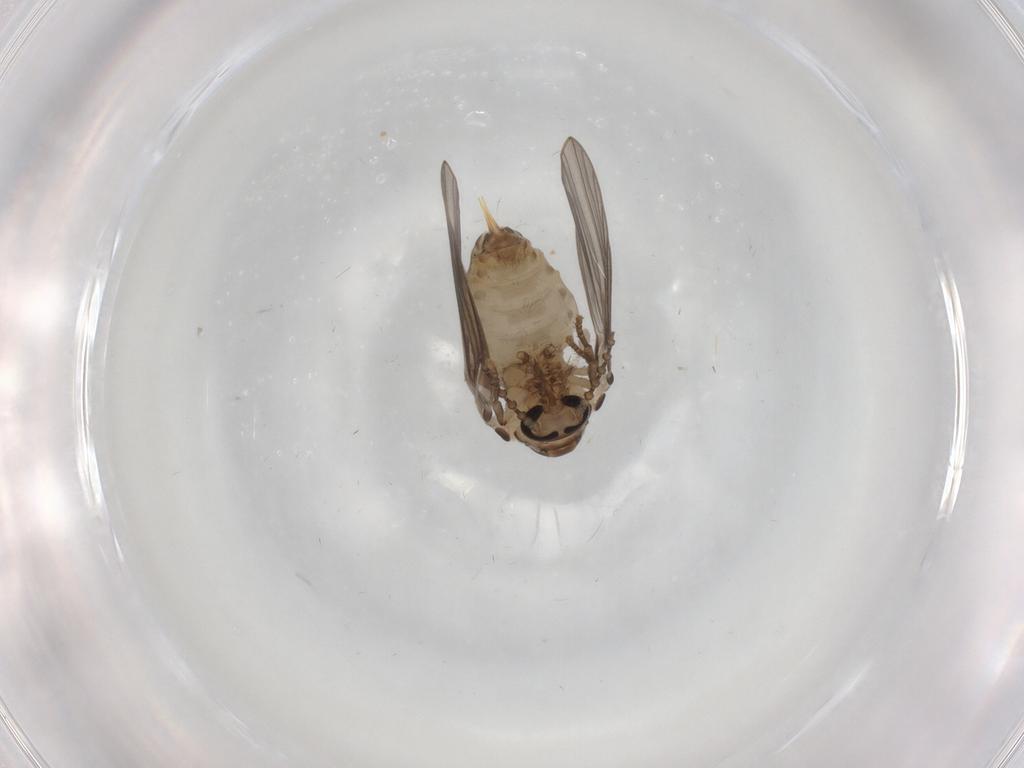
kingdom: Animalia
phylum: Arthropoda
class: Insecta
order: Diptera
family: Psychodidae
